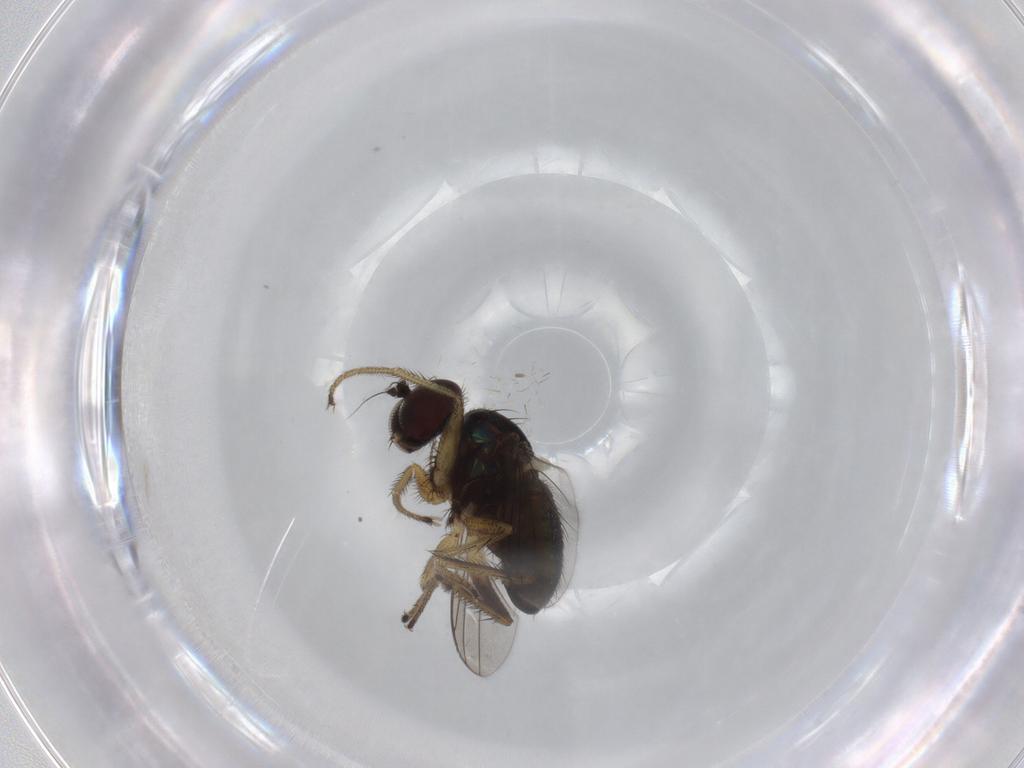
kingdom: Animalia
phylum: Arthropoda
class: Insecta
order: Diptera
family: Dolichopodidae
